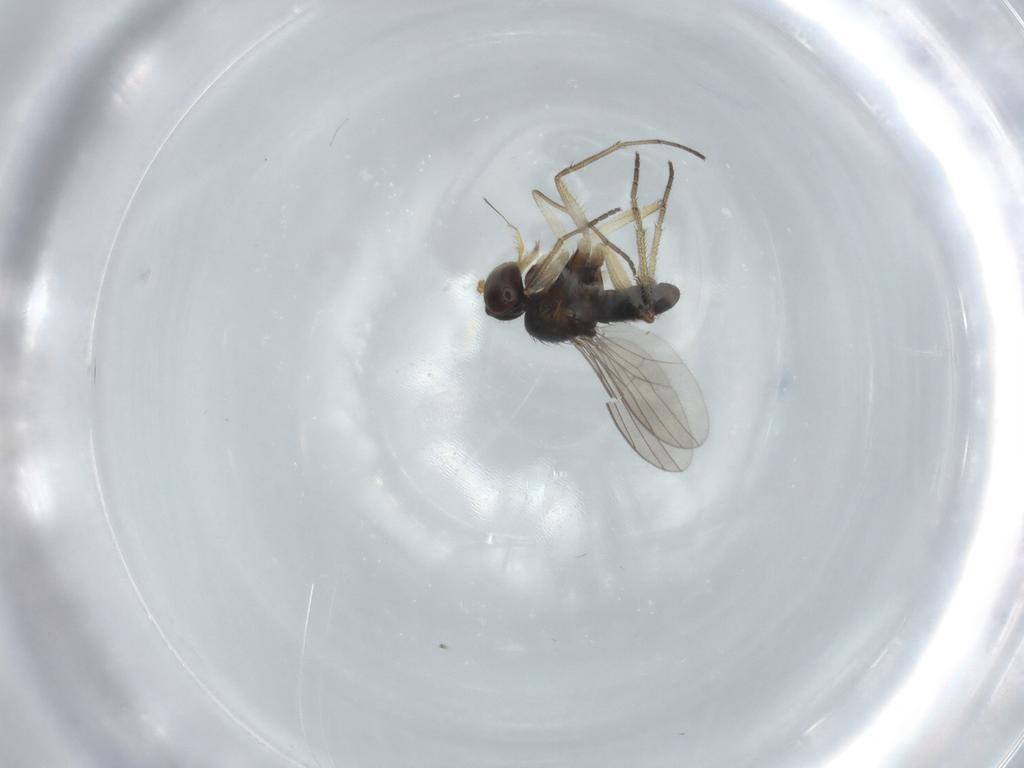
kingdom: Animalia
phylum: Arthropoda
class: Insecta
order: Diptera
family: Dolichopodidae
